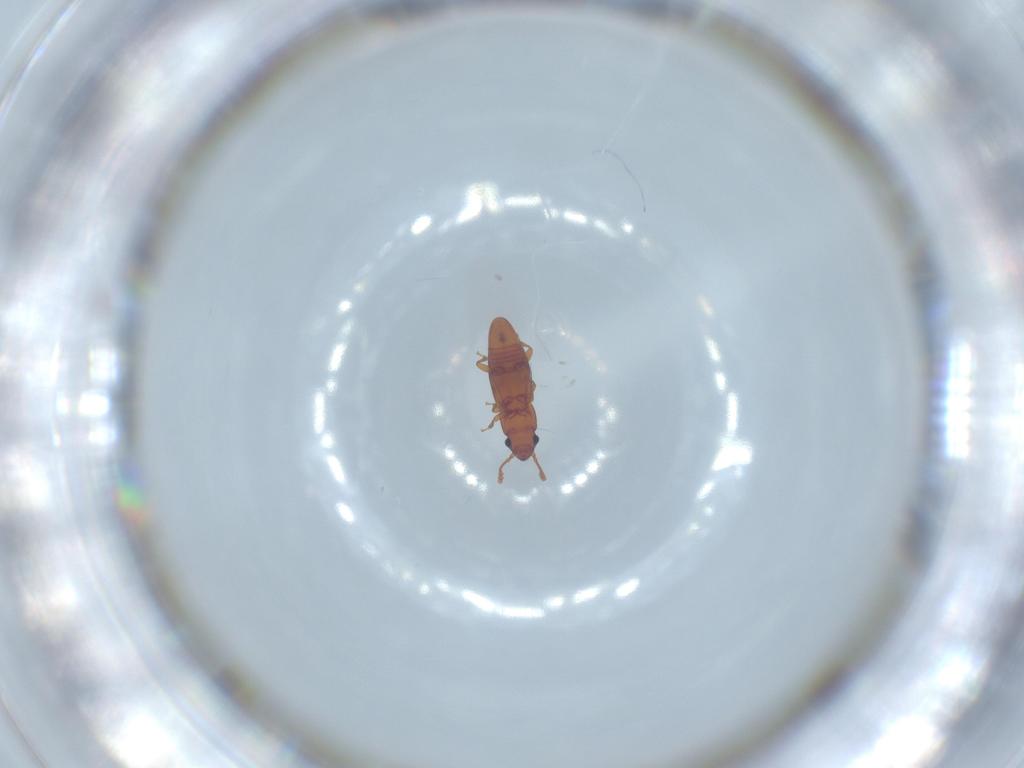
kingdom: Animalia
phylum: Arthropoda
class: Insecta
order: Coleoptera
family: Smicripidae
